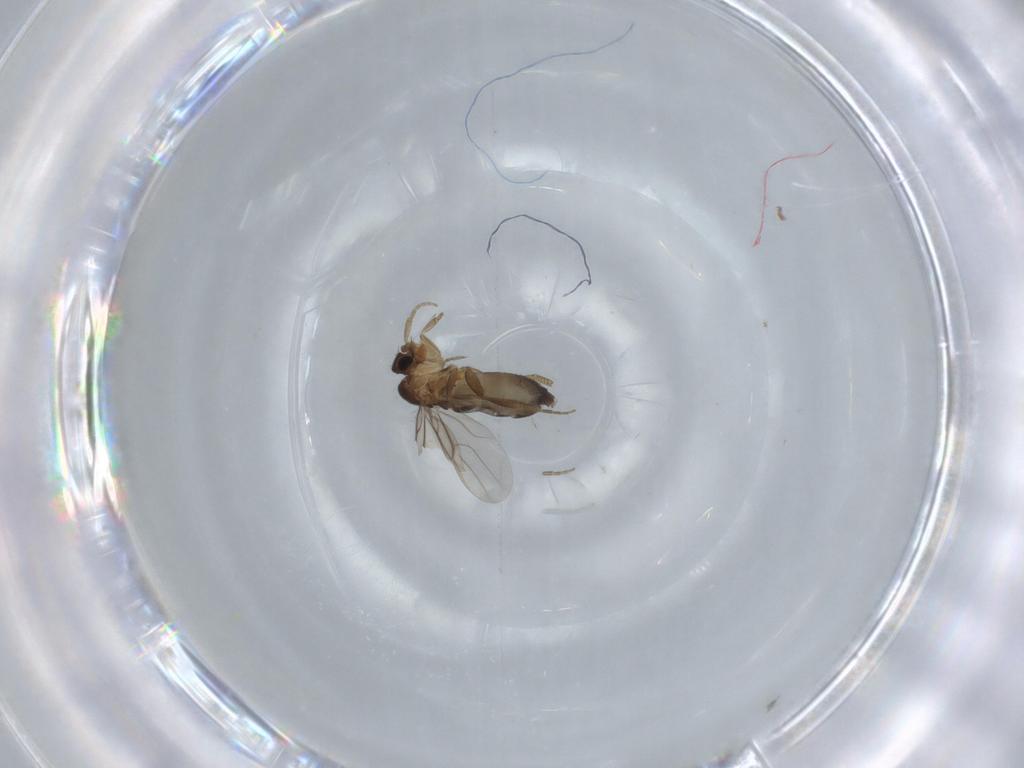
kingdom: Animalia
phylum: Arthropoda
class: Insecta
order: Diptera
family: Phoridae
